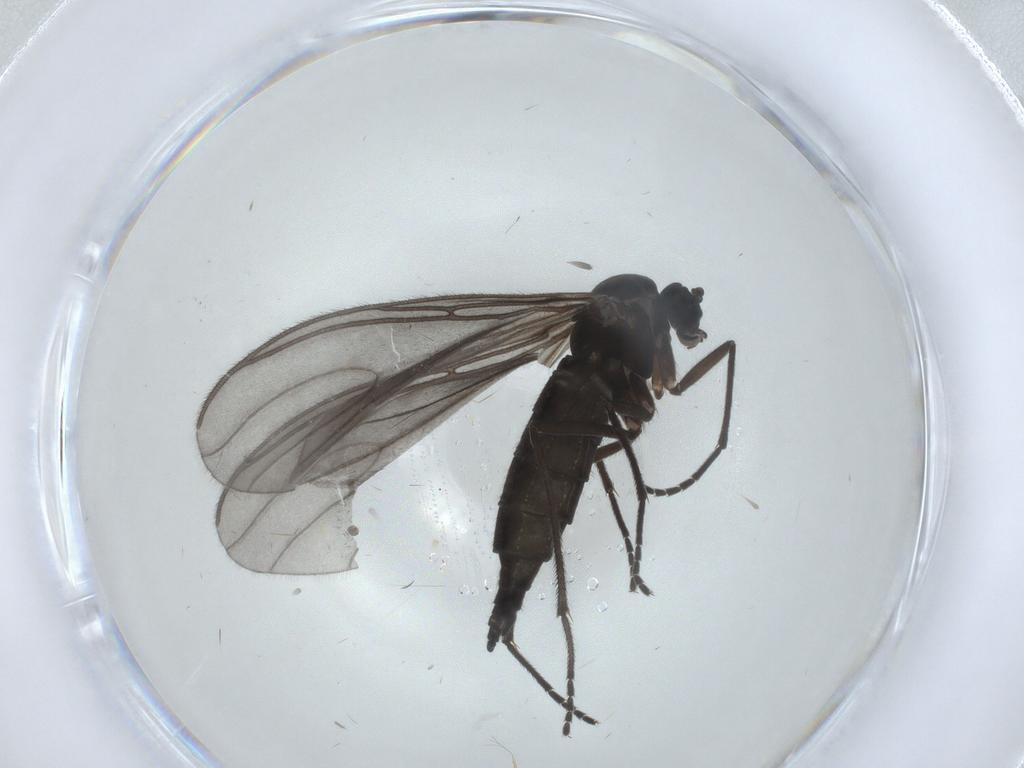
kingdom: Animalia
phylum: Arthropoda
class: Insecta
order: Diptera
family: Sciaridae
